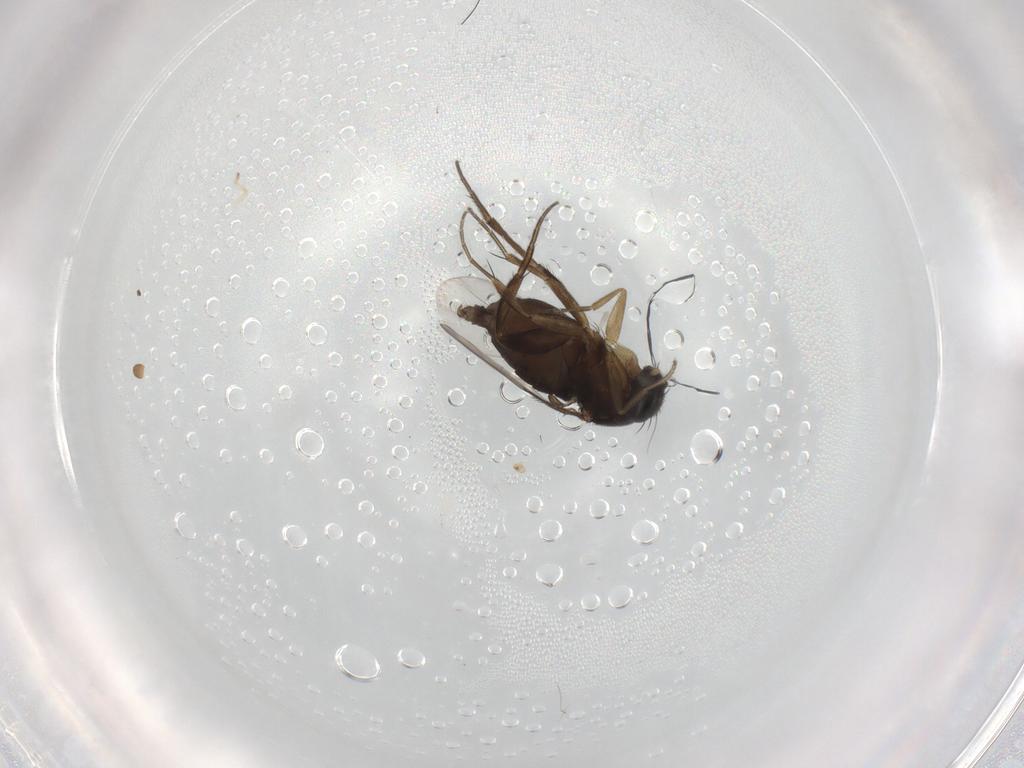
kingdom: Animalia
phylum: Arthropoda
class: Insecta
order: Diptera
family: Phoridae
